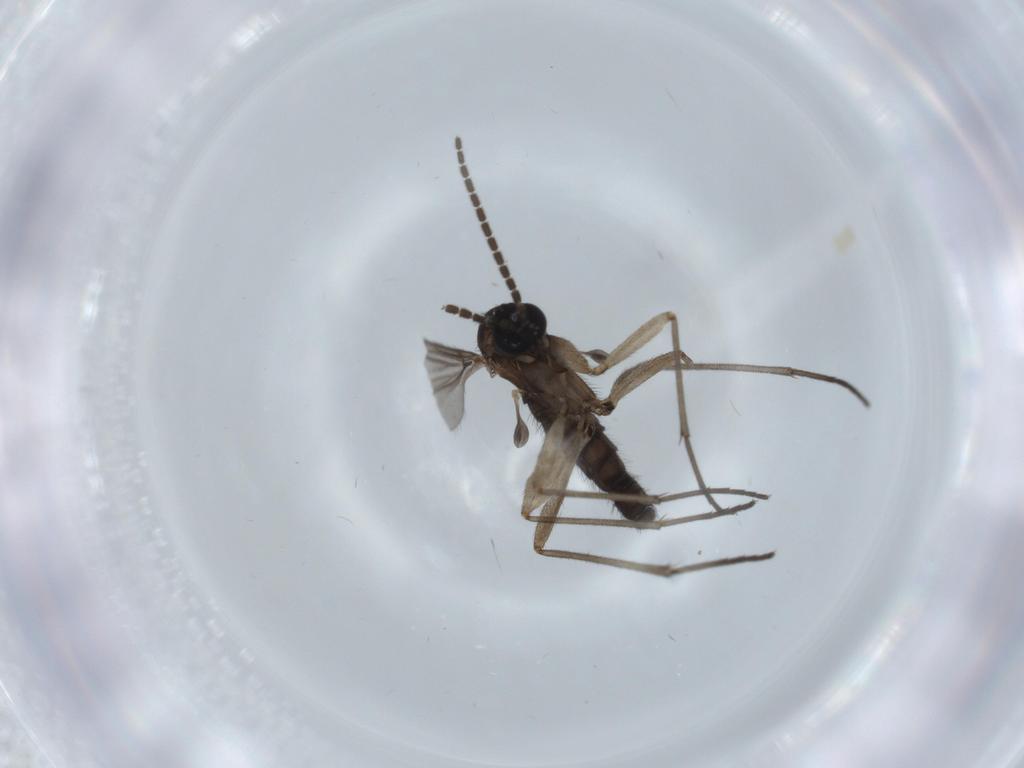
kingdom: Animalia
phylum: Arthropoda
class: Insecta
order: Diptera
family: Sciaridae
